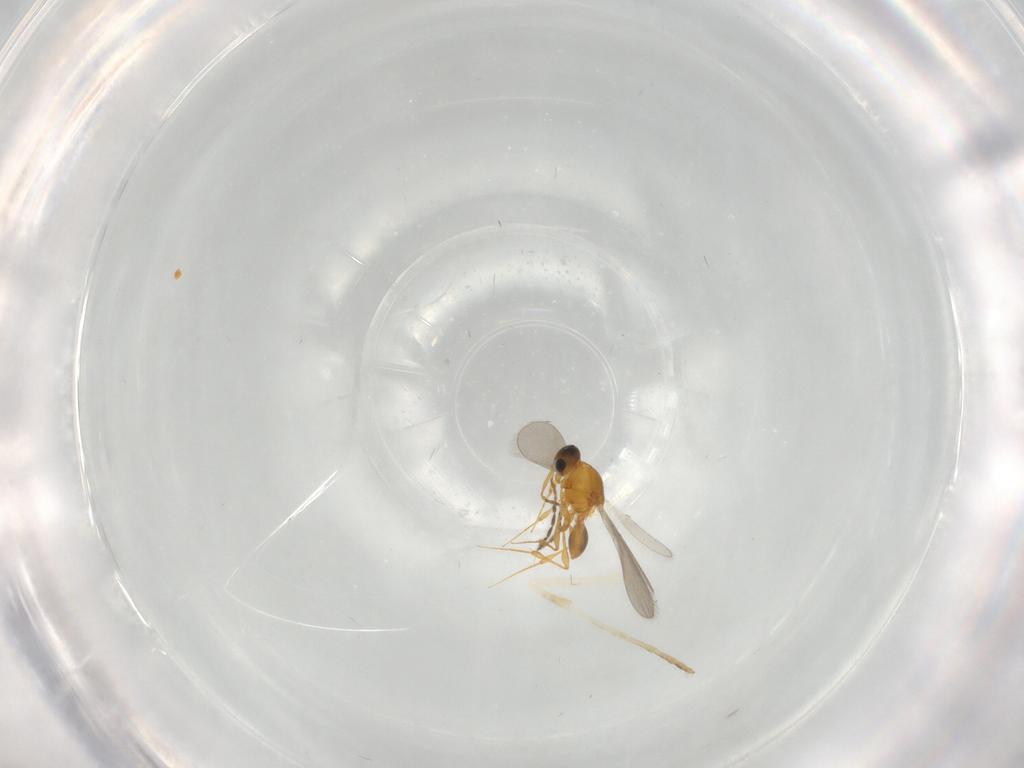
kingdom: Animalia
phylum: Arthropoda
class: Insecta
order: Hymenoptera
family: Platygastridae
